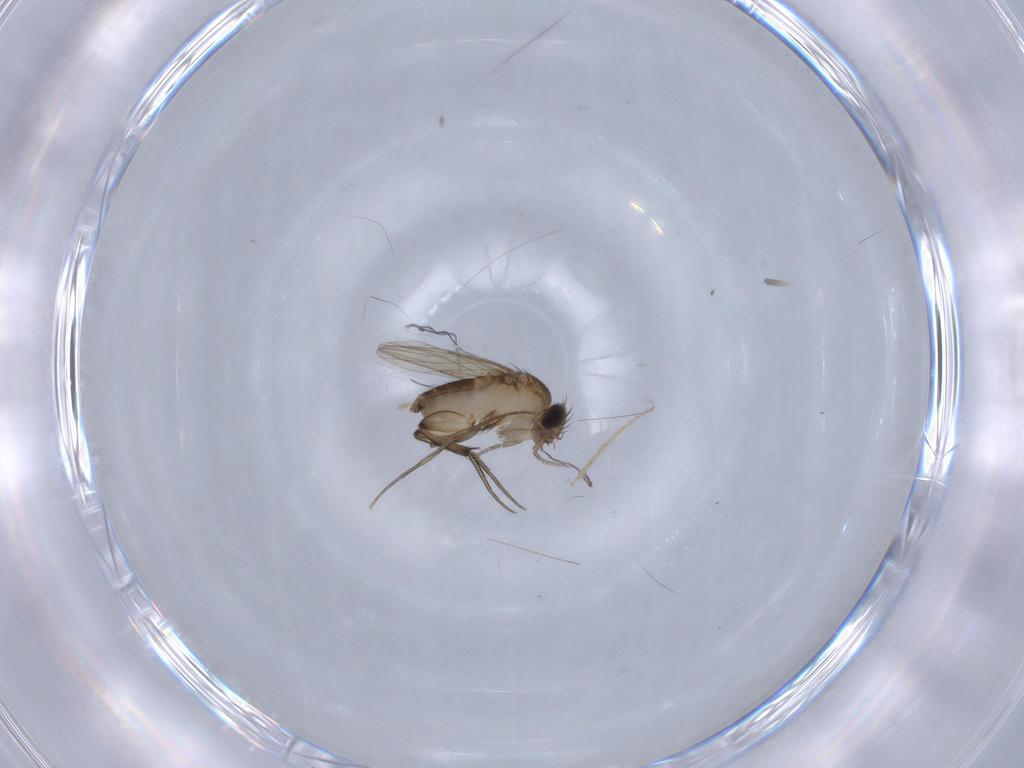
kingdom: Animalia
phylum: Arthropoda
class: Insecta
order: Diptera
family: Phoridae
